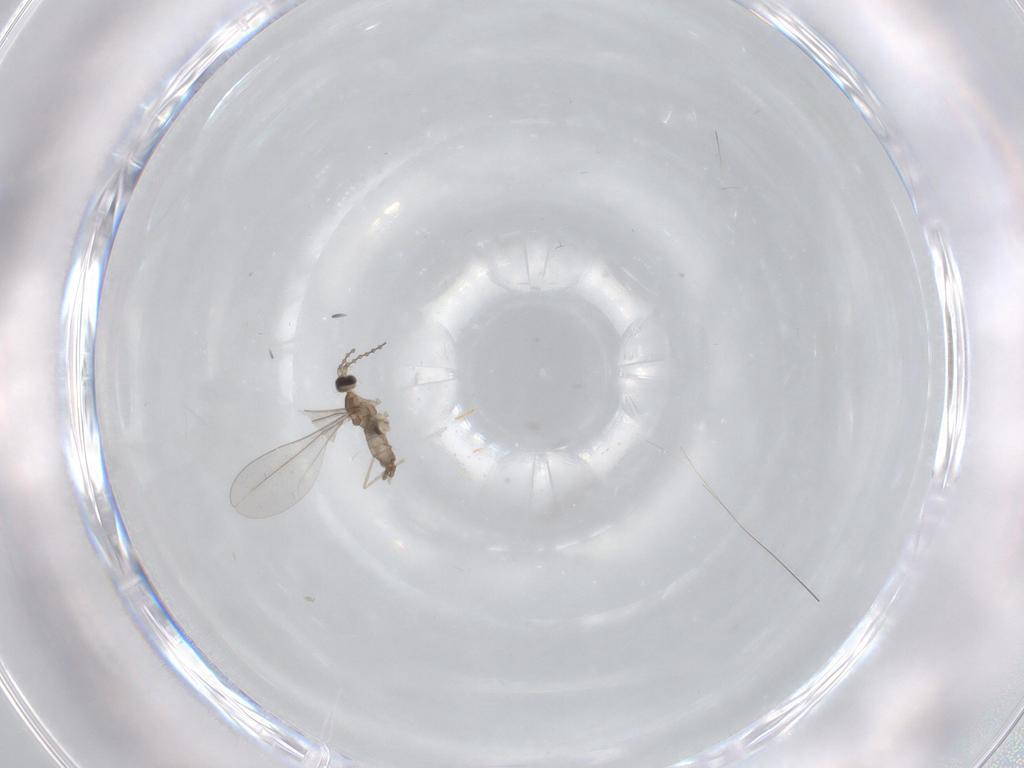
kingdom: Animalia
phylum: Arthropoda
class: Insecta
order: Diptera
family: Cecidomyiidae
